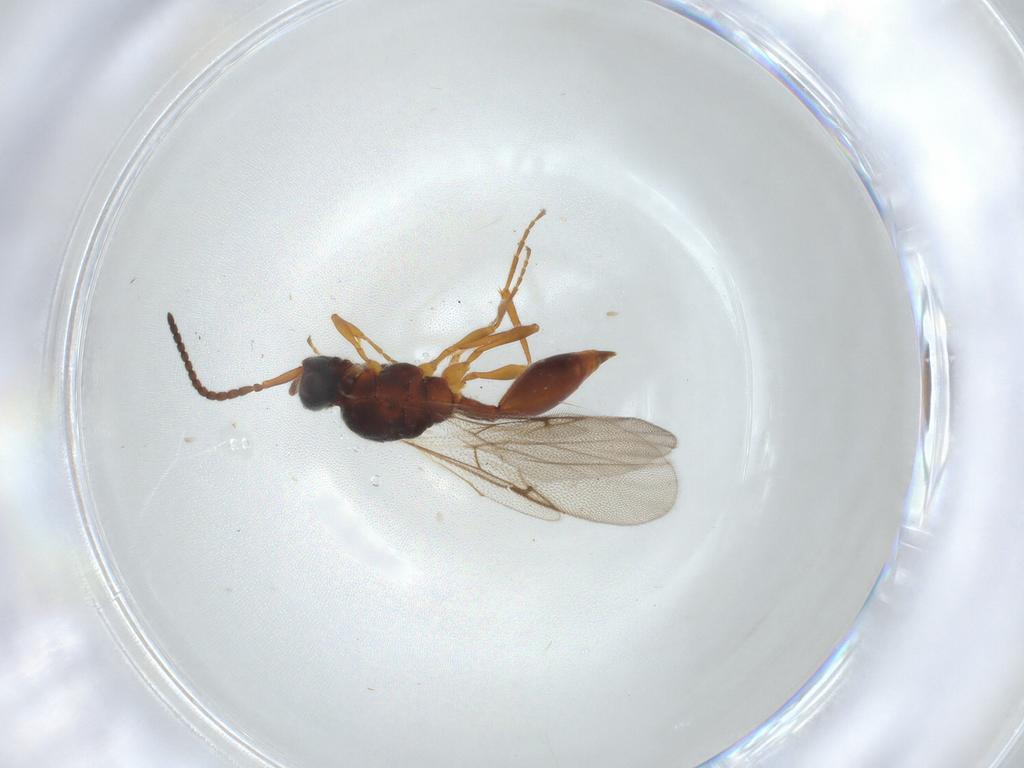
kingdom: Animalia
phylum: Arthropoda
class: Insecta
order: Hymenoptera
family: Diapriidae
